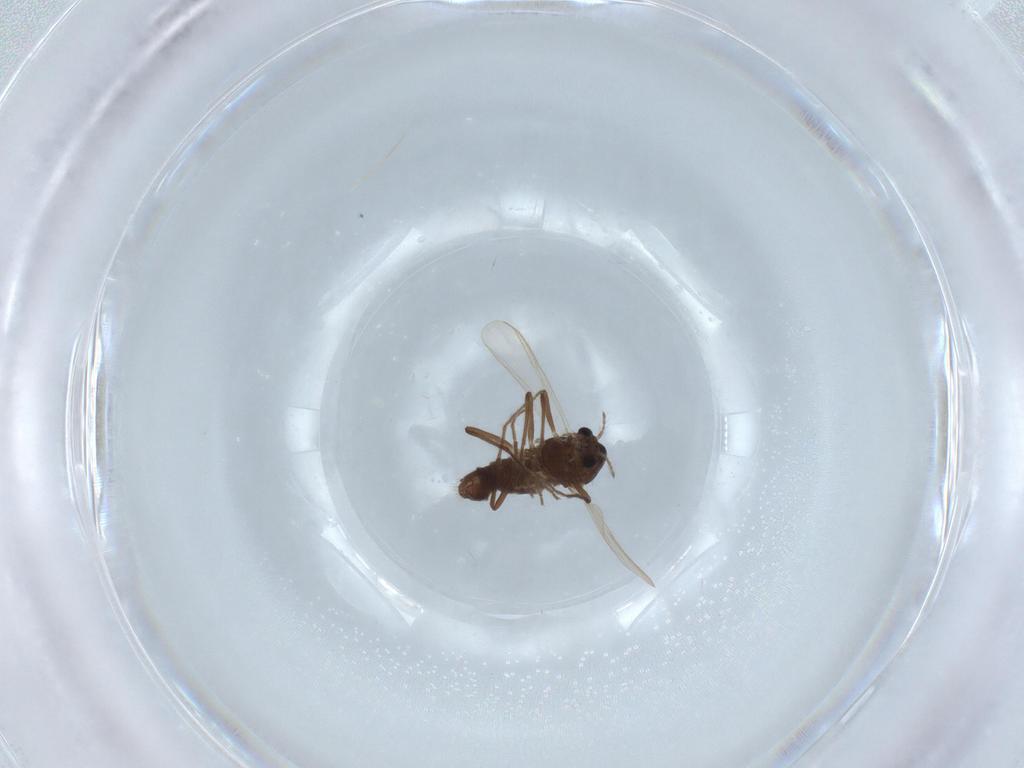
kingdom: Animalia
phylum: Arthropoda
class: Insecta
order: Diptera
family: Chironomidae
